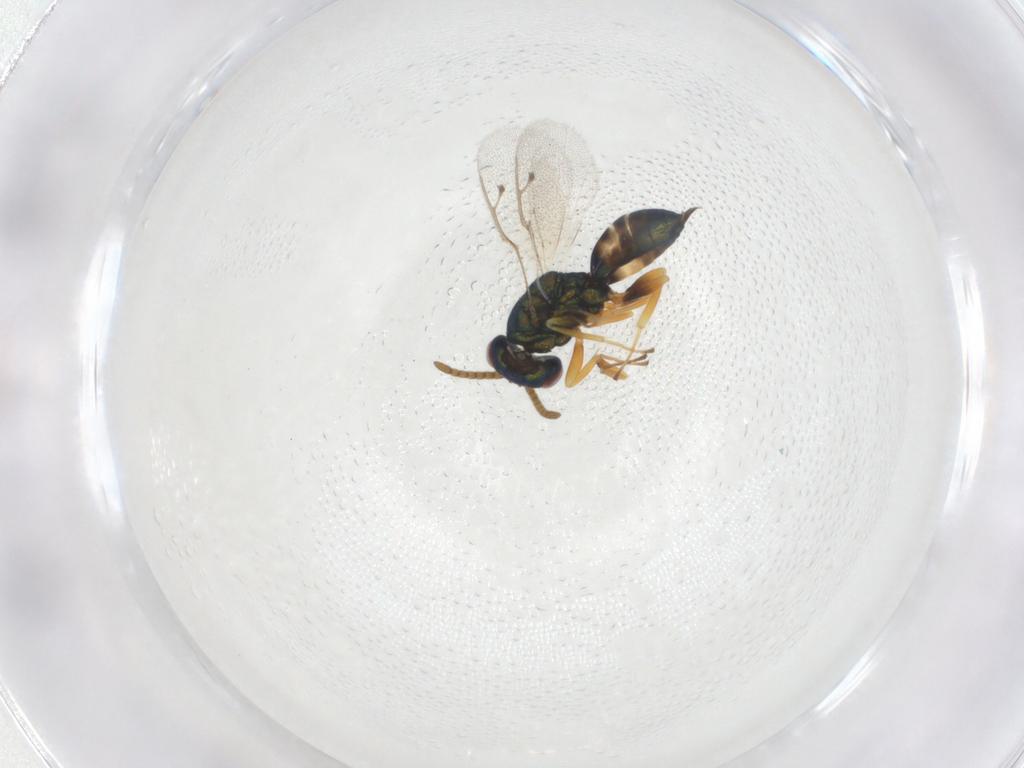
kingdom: Animalia
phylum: Arthropoda
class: Insecta
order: Hymenoptera
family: Pteromalidae
